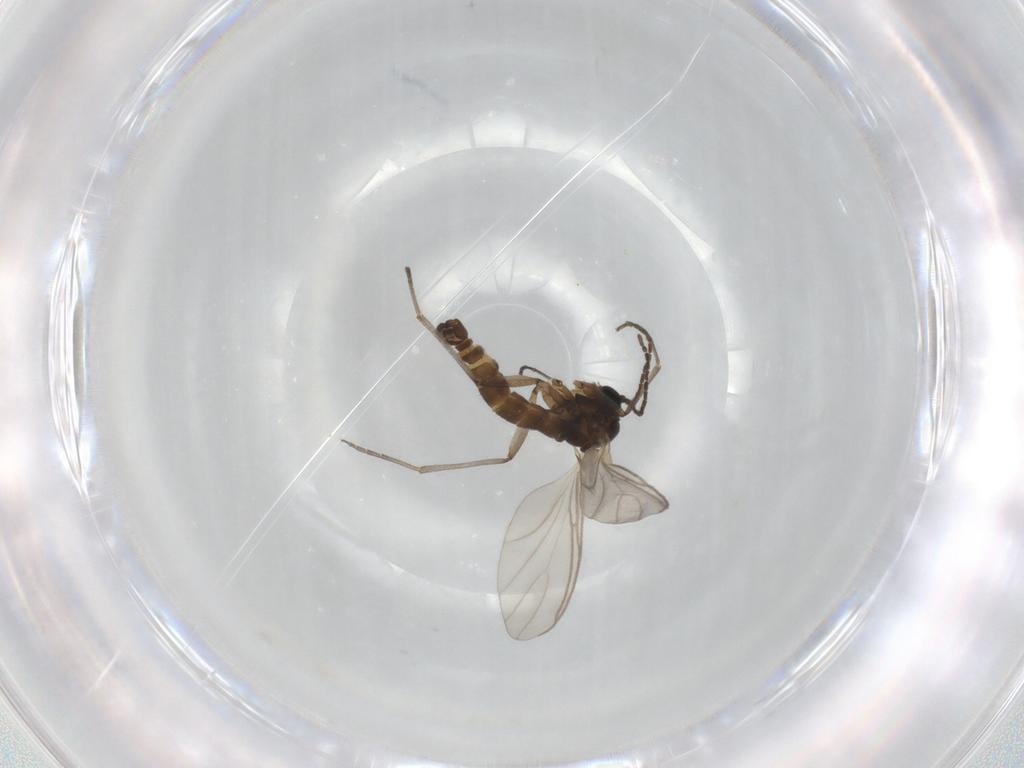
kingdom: Animalia
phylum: Arthropoda
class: Insecta
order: Diptera
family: Sciaridae
